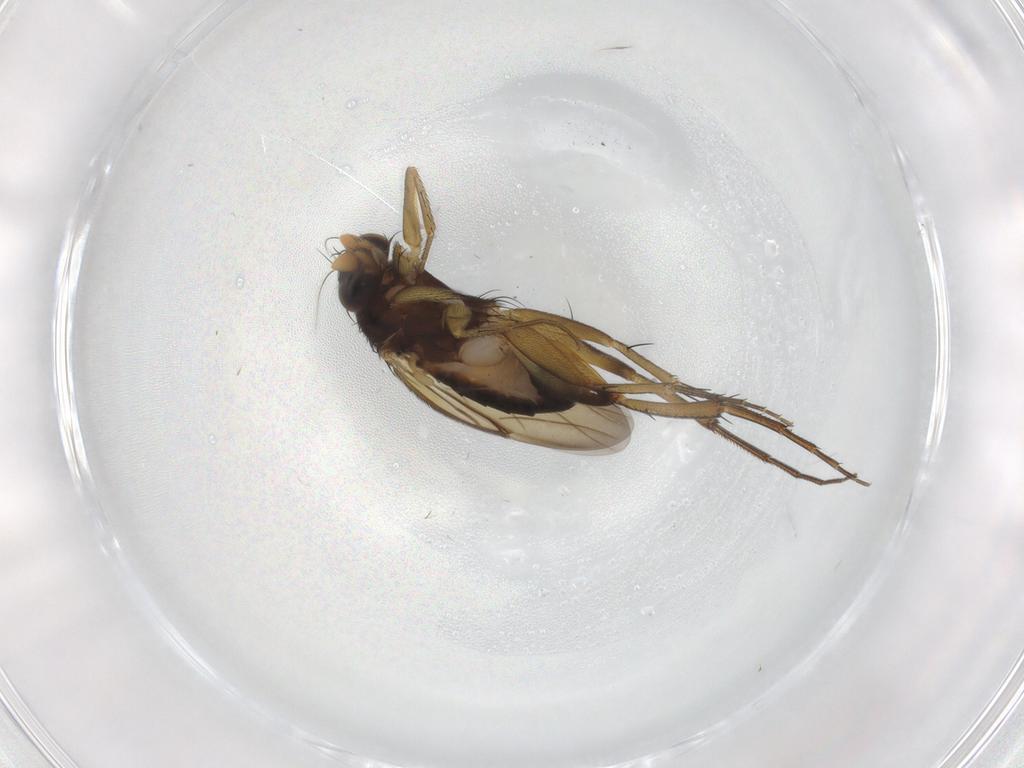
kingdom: Animalia
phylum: Arthropoda
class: Insecta
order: Diptera
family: Phoridae
